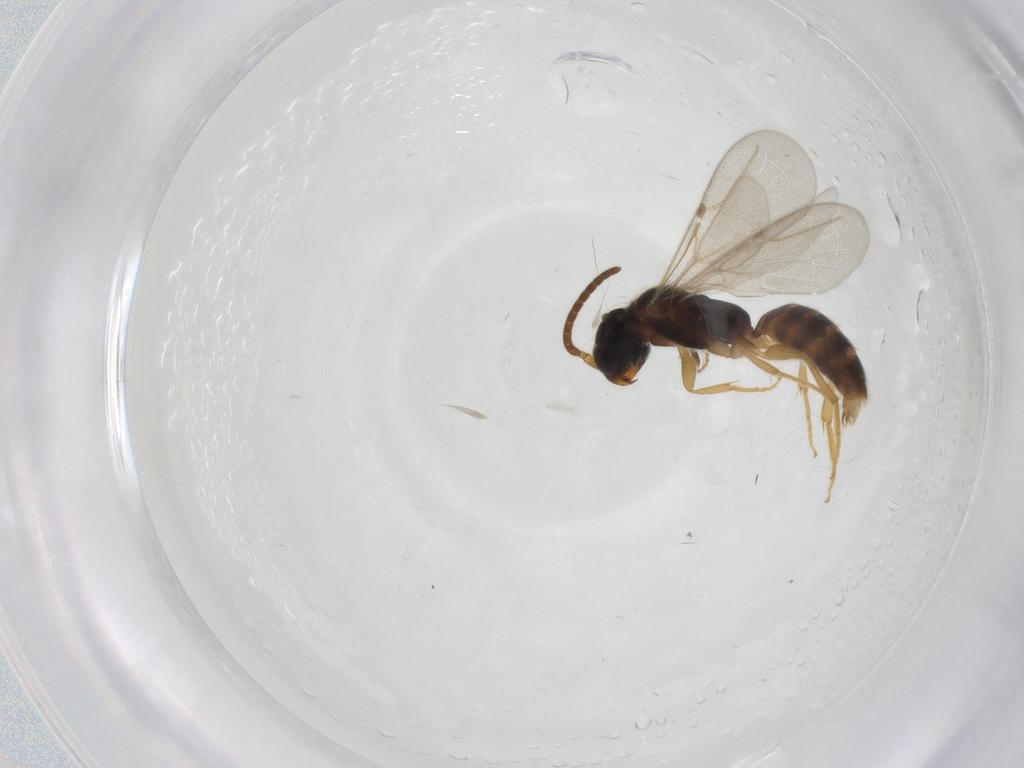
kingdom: Animalia
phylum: Arthropoda
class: Insecta
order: Hymenoptera
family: Bethylidae
